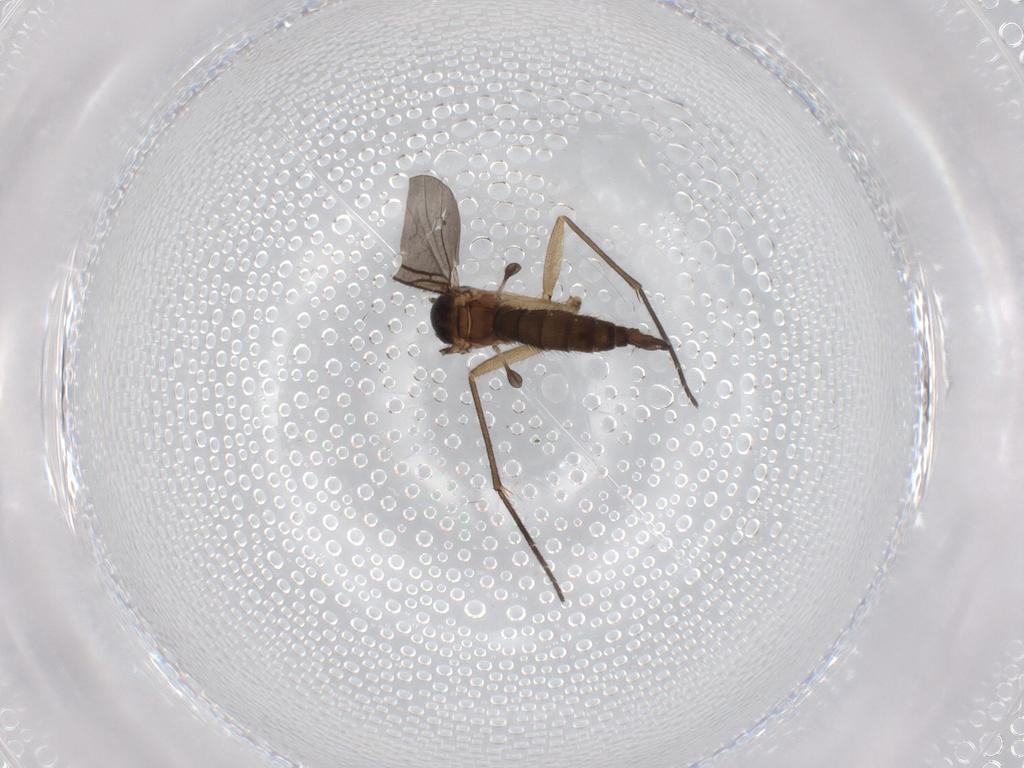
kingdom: Animalia
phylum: Arthropoda
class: Insecta
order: Diptera
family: Sciaridae
